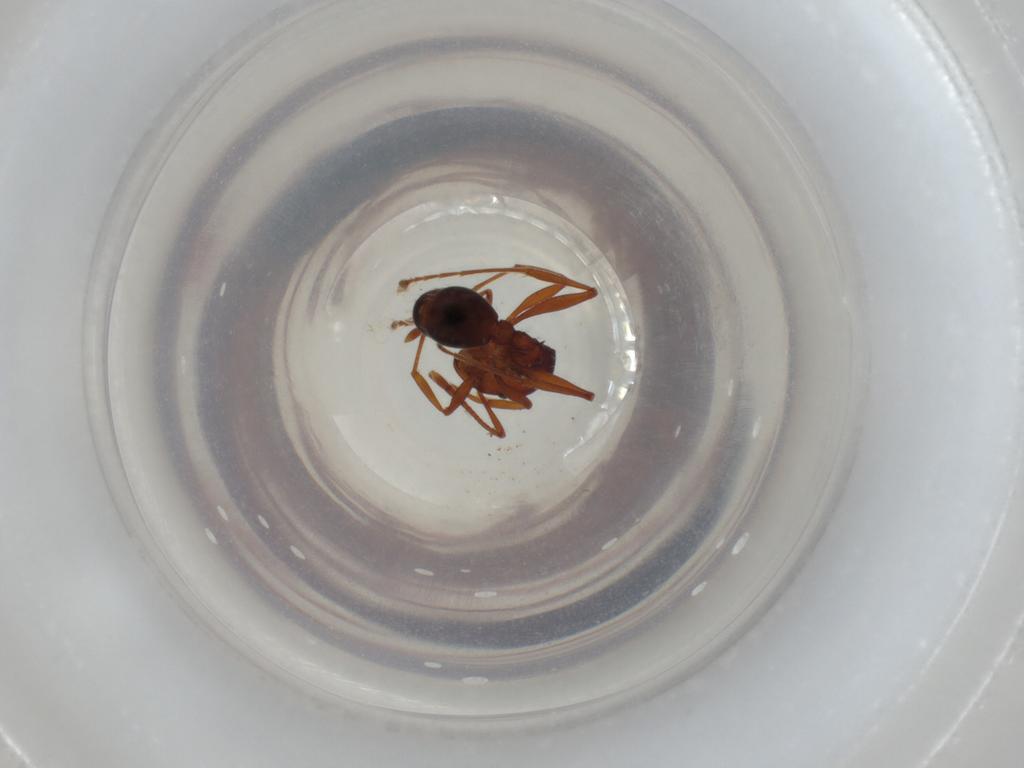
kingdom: Animalia
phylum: Arthropoda
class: Insecta
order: Hymenoptera
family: Formicidae
